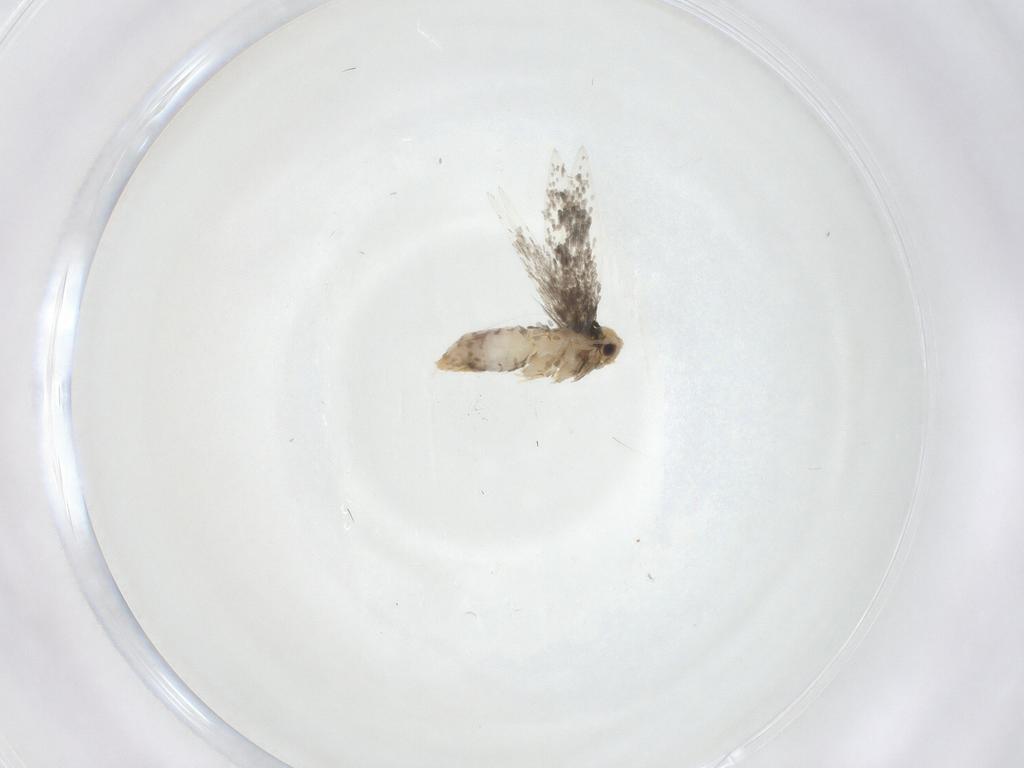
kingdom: Animalia
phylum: Arthropoda
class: Insecta
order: Lepidoptera
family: Nepticulidae
